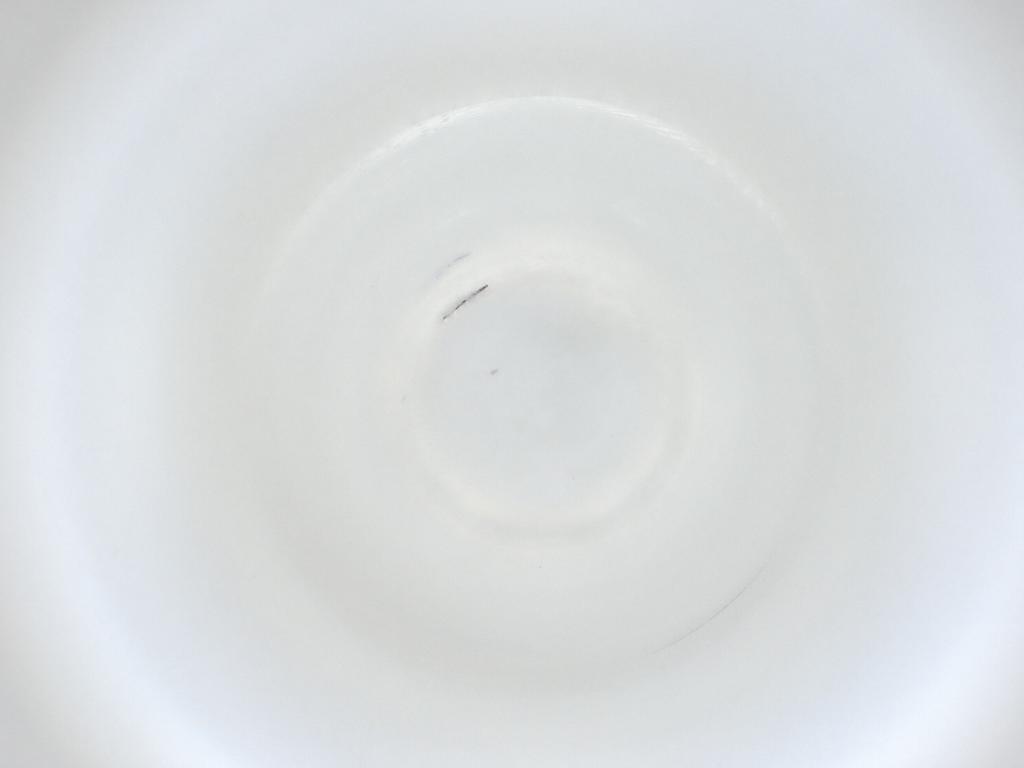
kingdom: Animalia
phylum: Arthropoda
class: Insecta
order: Diptera
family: Cecidomyiidae
